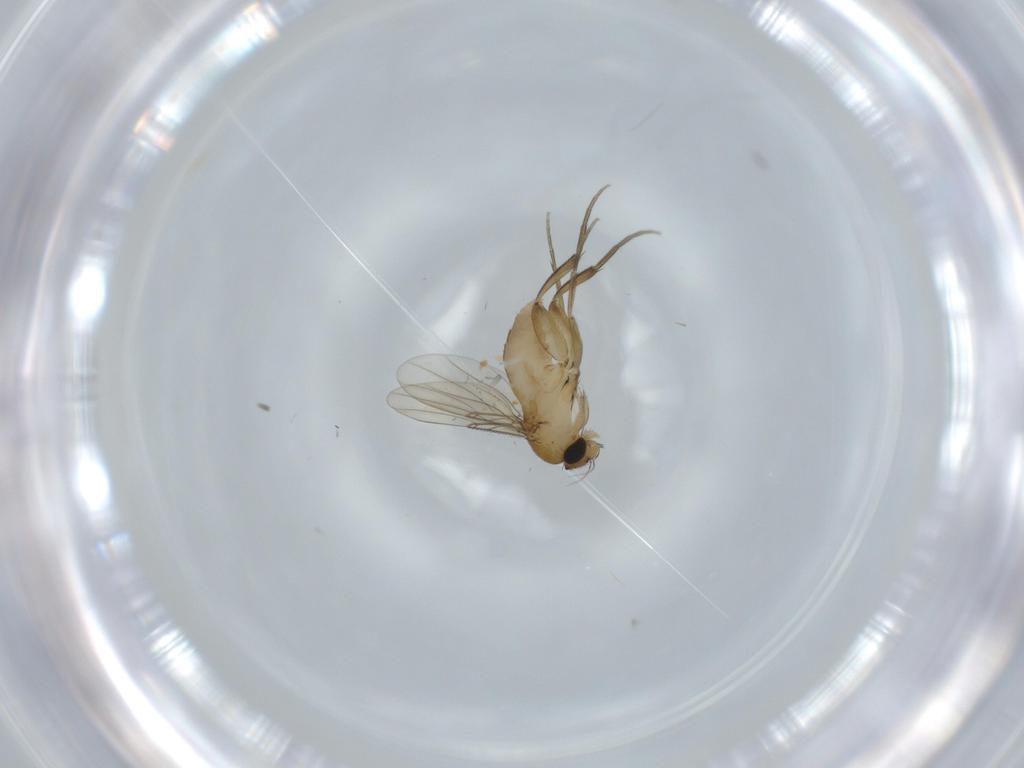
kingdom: Animalia
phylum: Arthropoda
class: Insecta
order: Diptera
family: Phoridae
